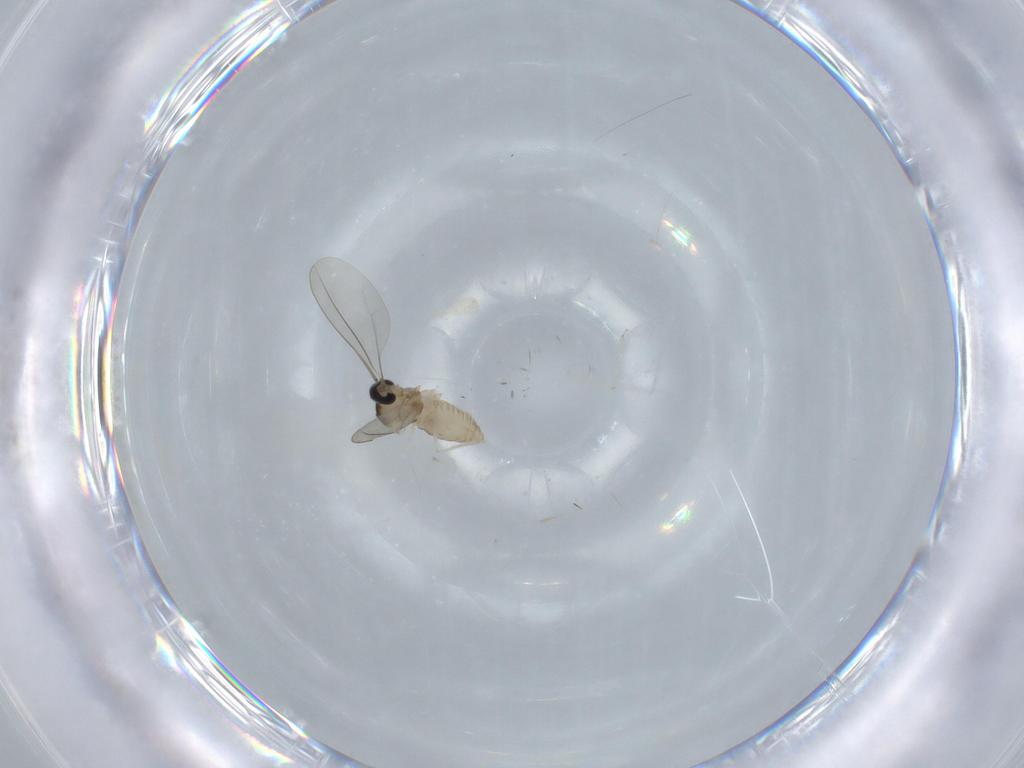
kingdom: Animalia
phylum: Arthropoda
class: Insecta
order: Diptera
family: Cecidomyiidae
